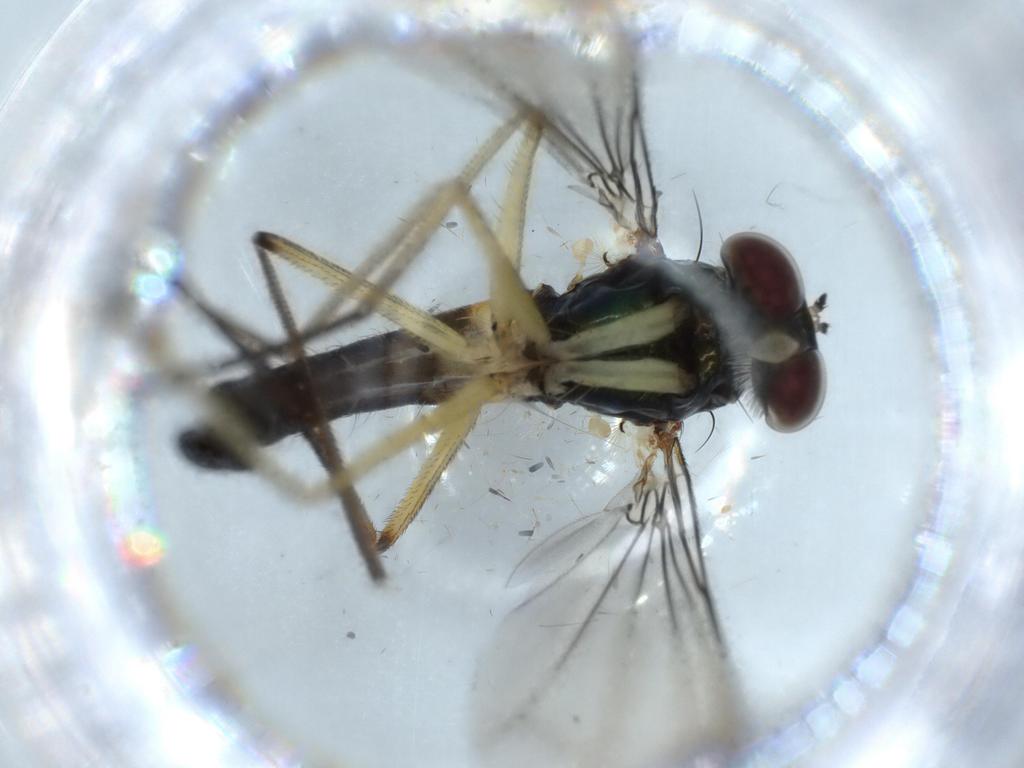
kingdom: Animalia
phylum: Arthropoda
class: Insecta
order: Diptera
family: Dolichopodidae
